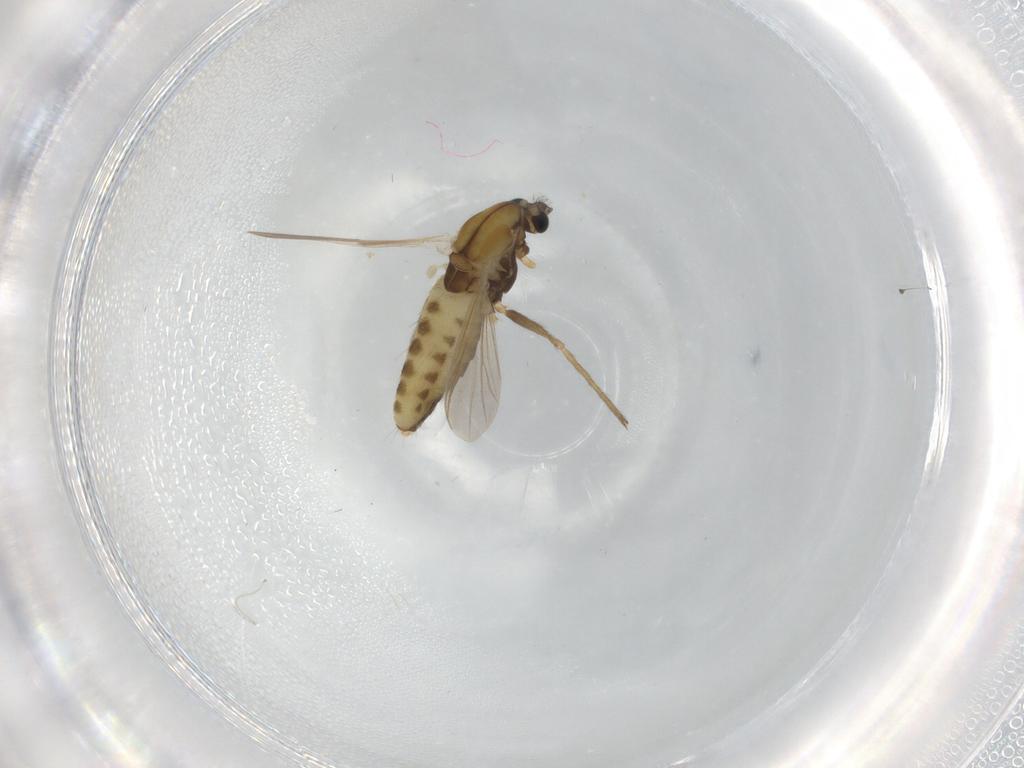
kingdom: Animalia
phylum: Arthropoda
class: Insecta
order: Diptera
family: Chironomidae
